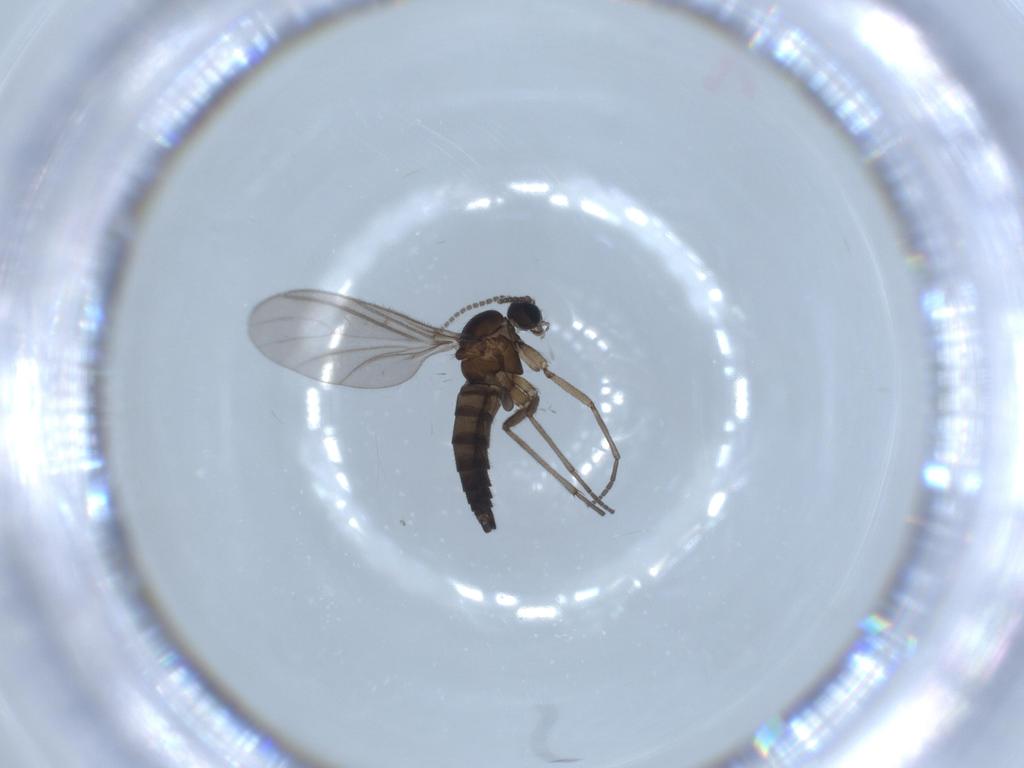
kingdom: Animalia
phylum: Arthropoda
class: Insecta
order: Diptera
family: Sciaridae
